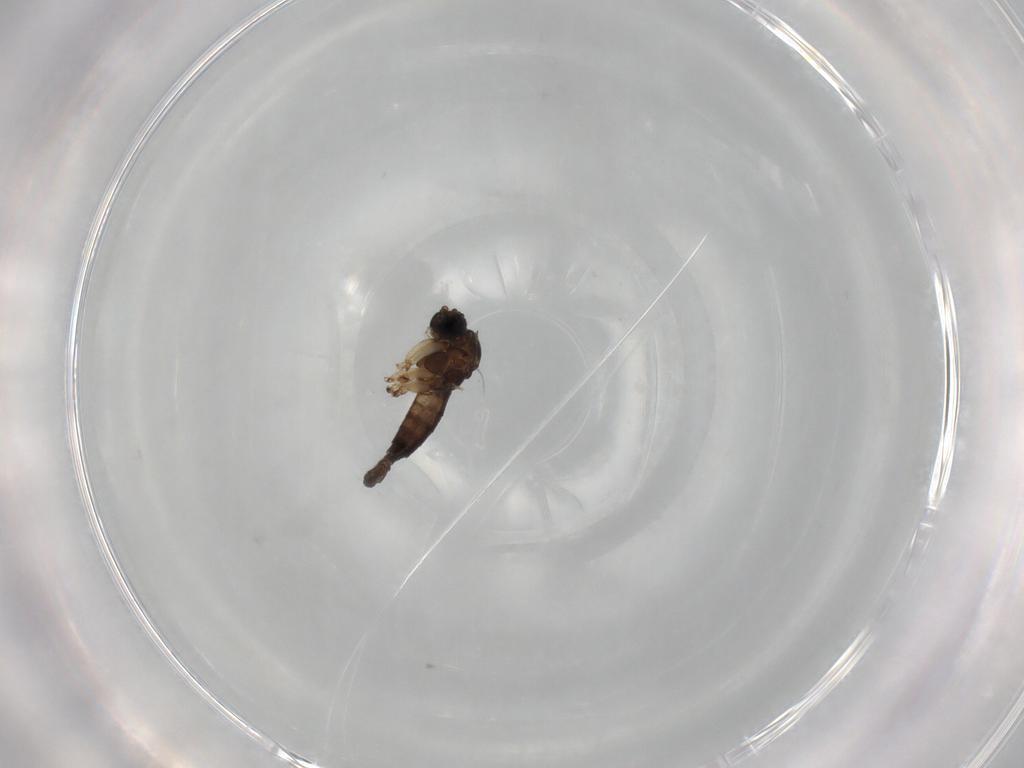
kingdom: Animalia
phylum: Arthropoda
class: Insecta
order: Diptera
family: Sciaridae
